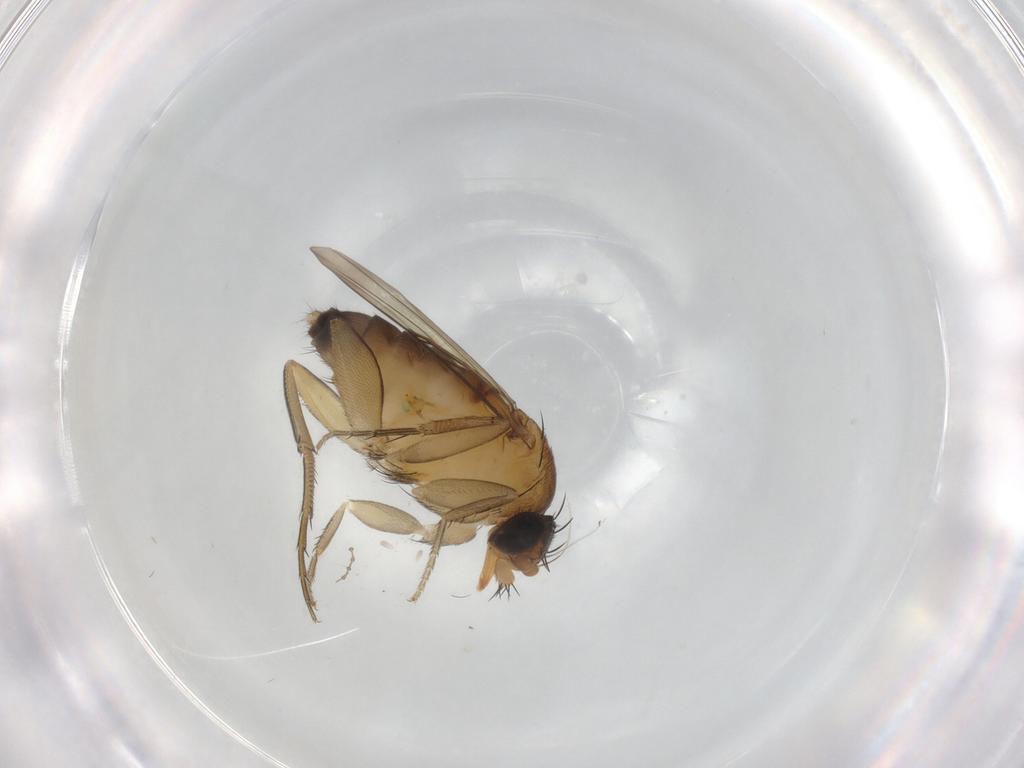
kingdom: Animalia
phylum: Arthropoda
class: Insecta
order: Diptera
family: Phoridae
